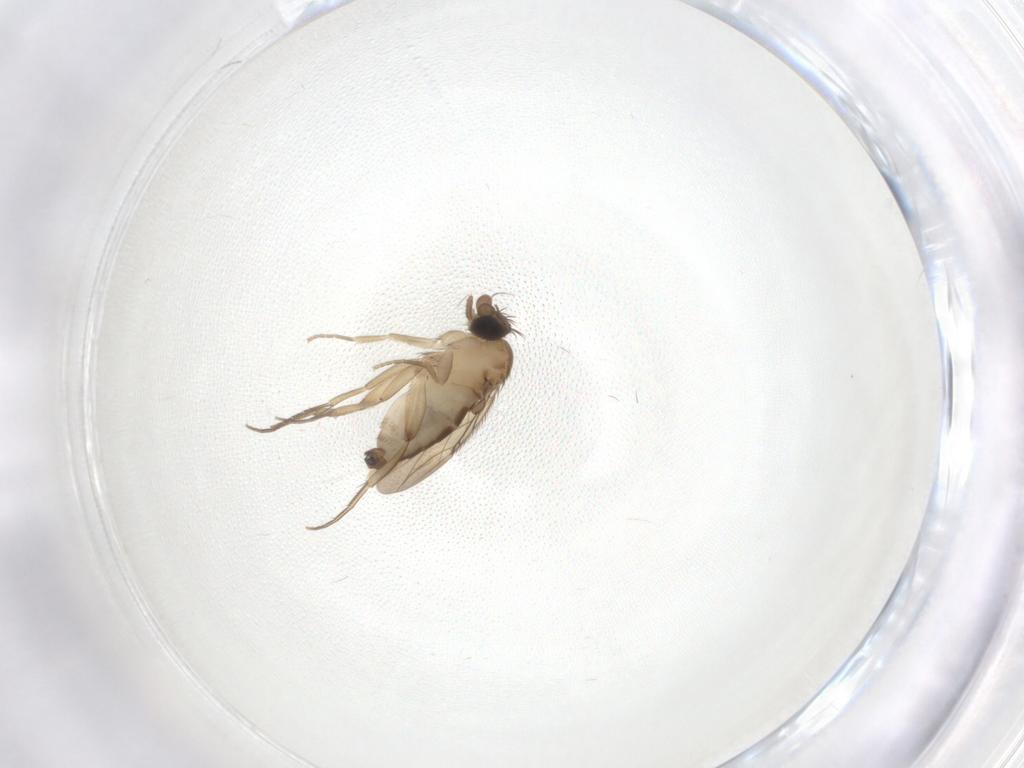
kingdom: Animalia
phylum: Arthropoda
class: Insecta
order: Diptera
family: Phoridae
